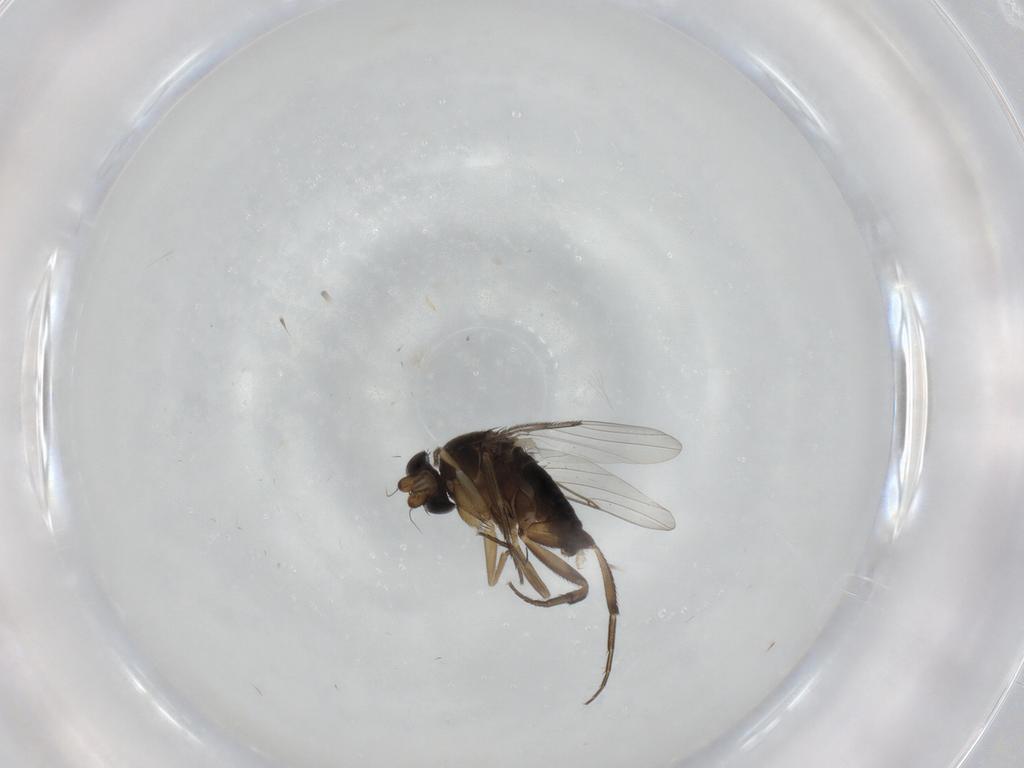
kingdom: Animalia
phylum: Arthropoda
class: Insecta
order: Diptera
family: Phoridae
